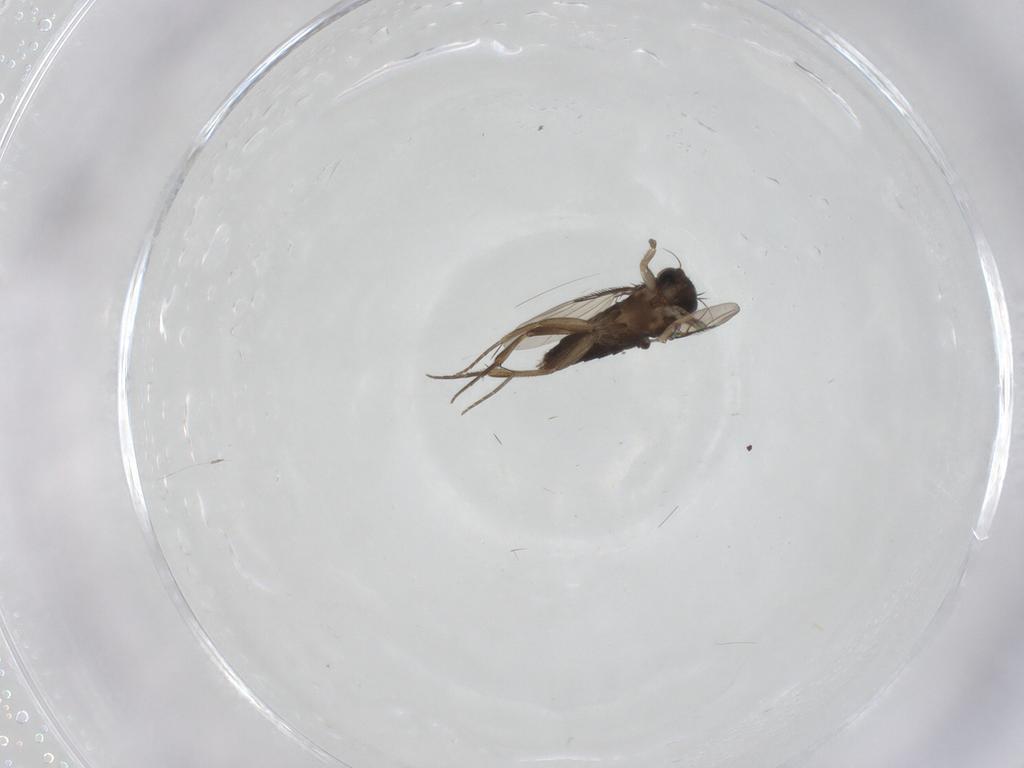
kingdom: Animalia
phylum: Arthropoda
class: Insecta
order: Diptera
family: Phoridae
